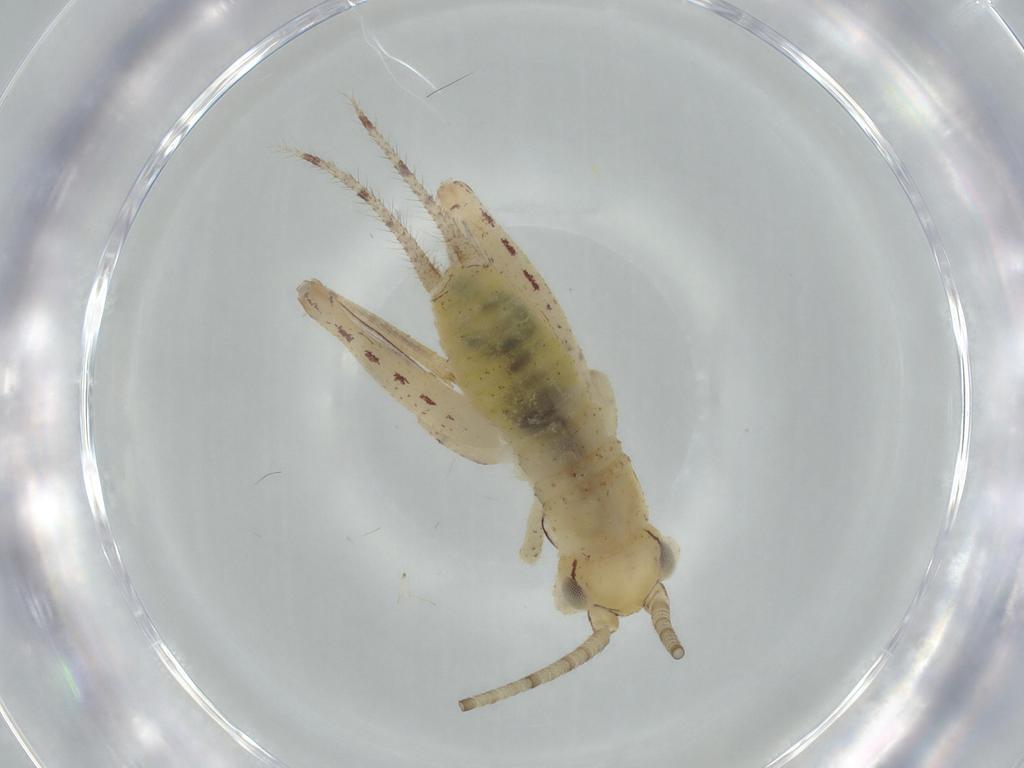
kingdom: Animalia
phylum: Arthropoda
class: Insecta
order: Orthoptera
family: Gryllidae
